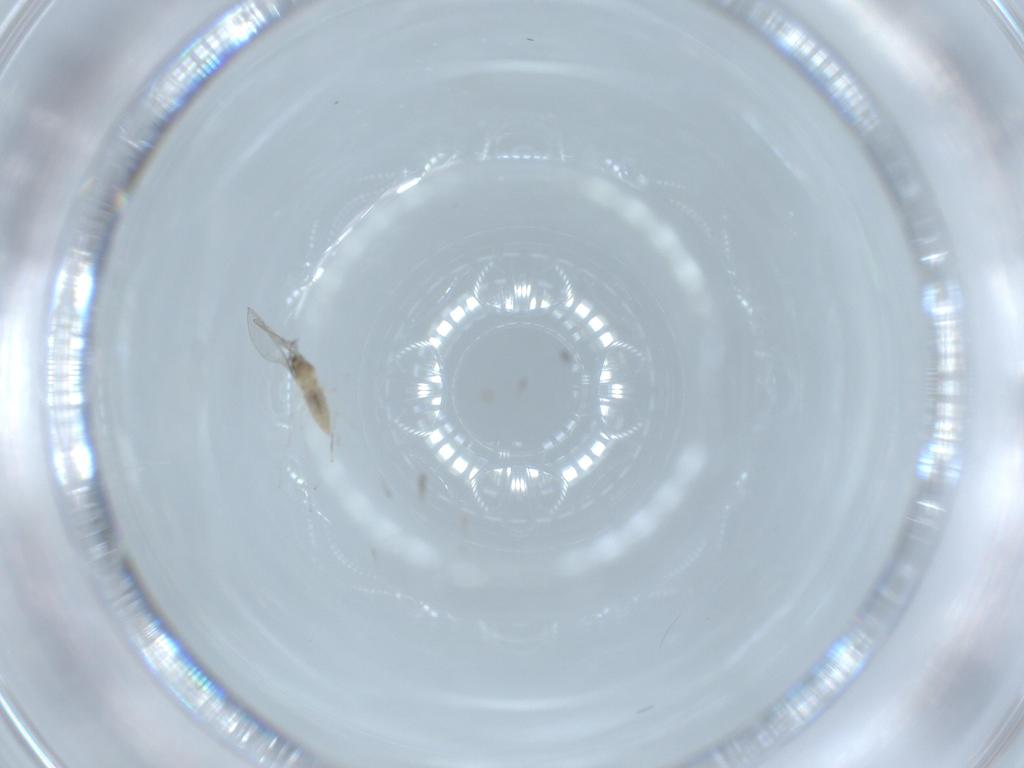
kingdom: Animalia
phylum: Arthropoda
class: Insecta
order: Diptera
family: Cecidomyiidae
